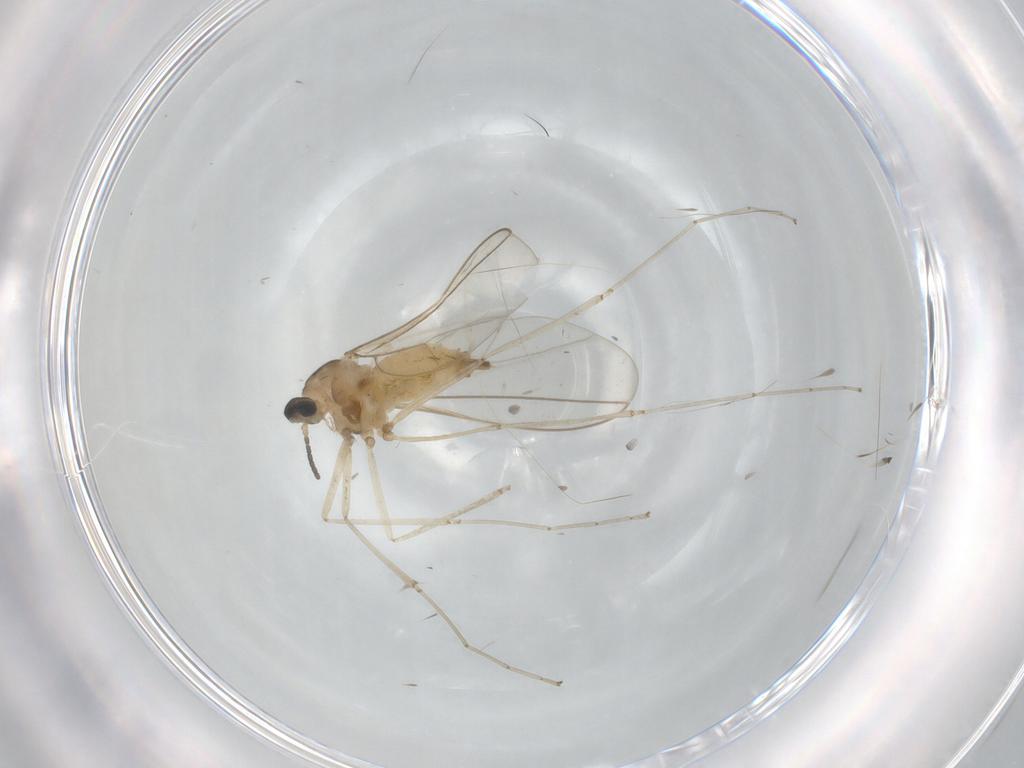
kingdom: Animalia
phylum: Arthropoda
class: Insecta
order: Diptera
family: Cecidomyiidae
